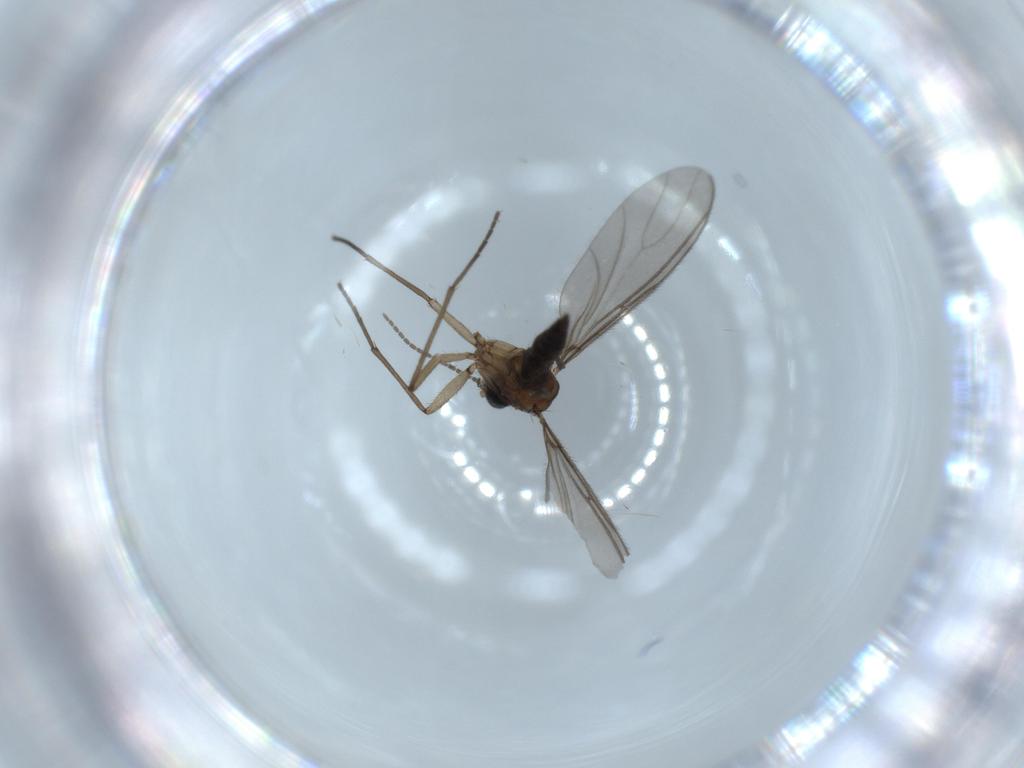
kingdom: Animalia
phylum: Arthropoda
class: Insecta
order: Diptera
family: Sciaridae
